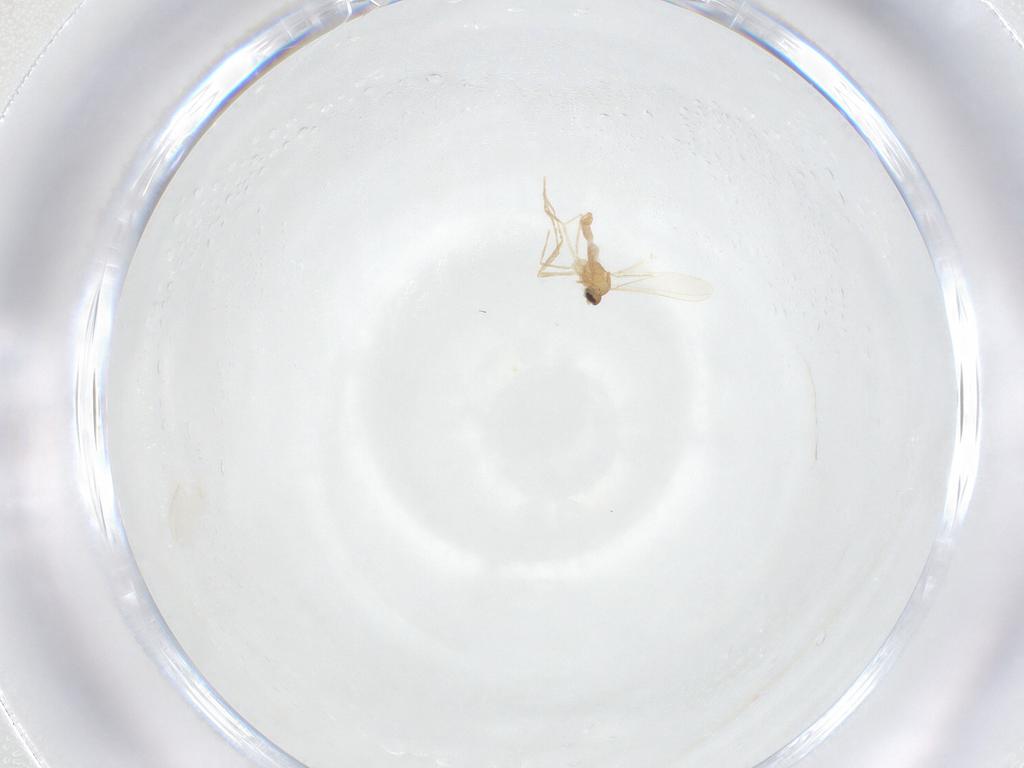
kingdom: Animalia
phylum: Arthropoda
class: Insecta
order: Diptera
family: Cecidomyiidae
